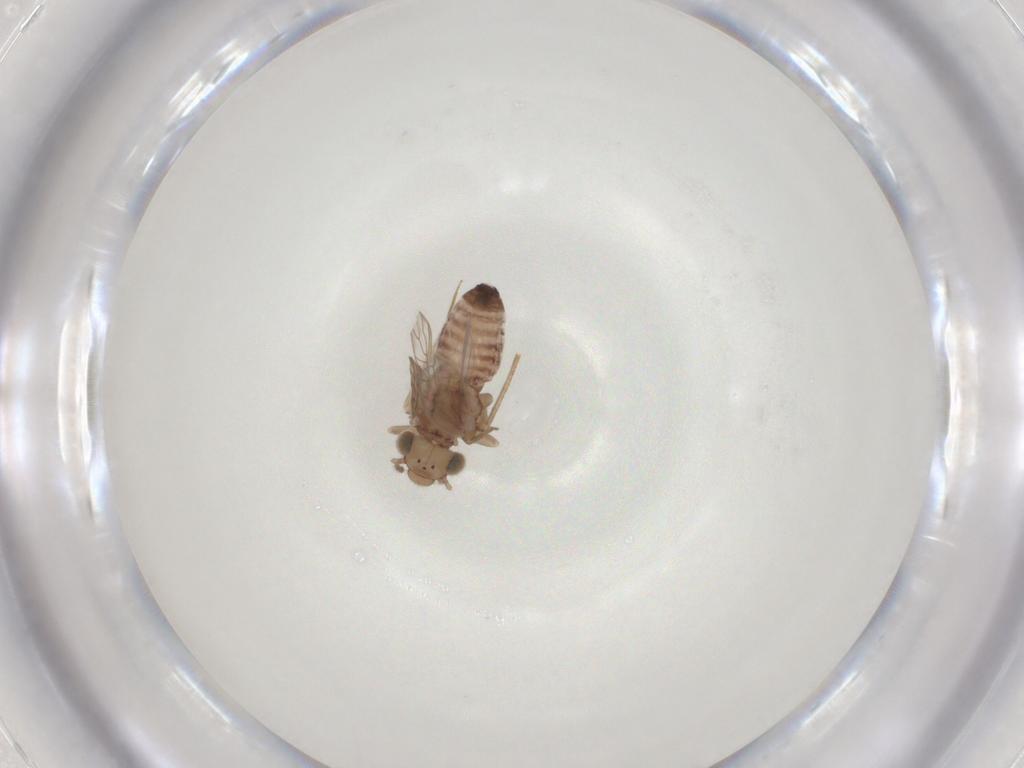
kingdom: Animalia
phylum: Arthropoda
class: Insecta
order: Psocodea
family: Lepidopsocidae
